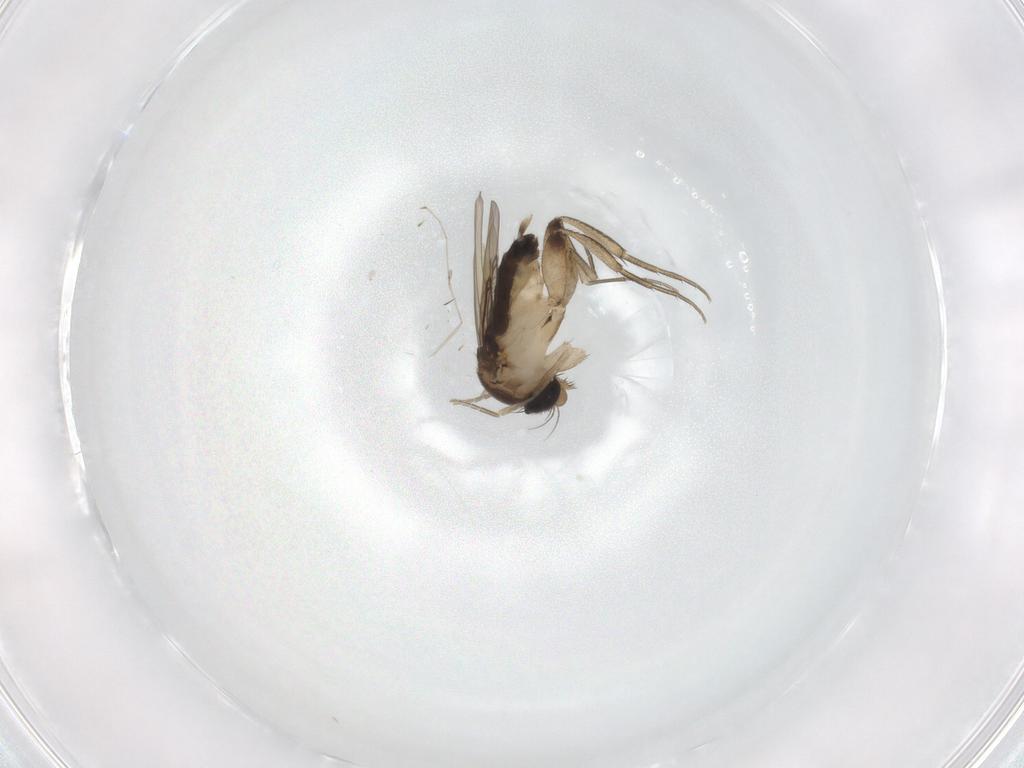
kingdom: Animalia
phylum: Arthropoda
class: Insecta
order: Diptera
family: Phoridae
